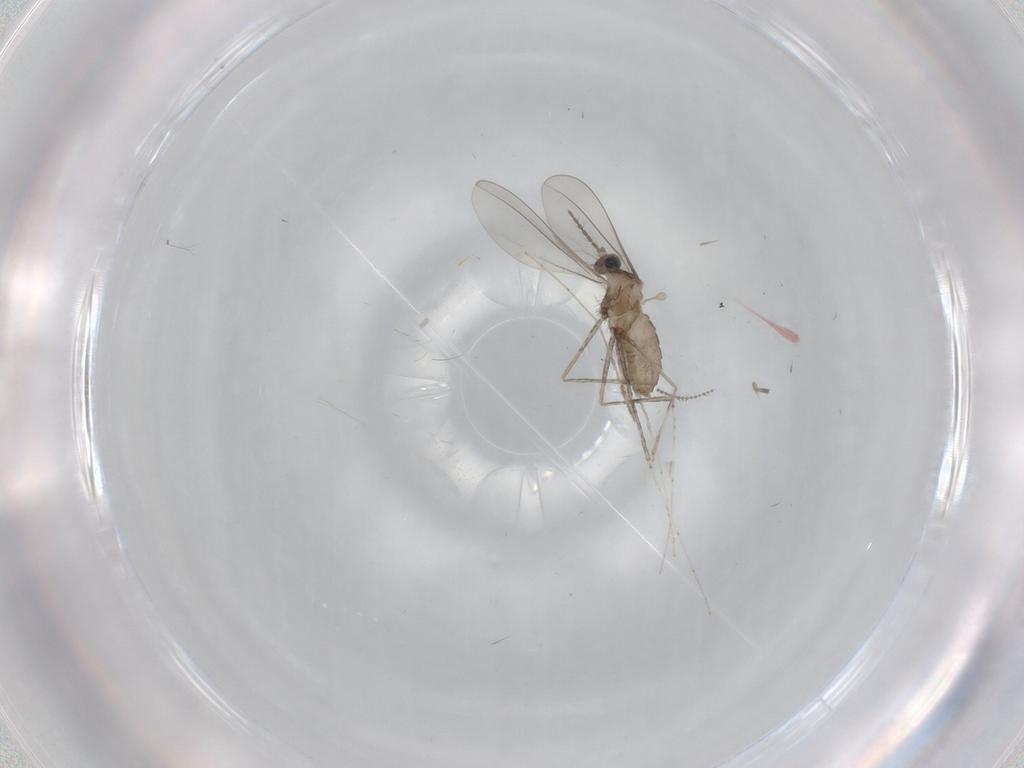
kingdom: Animalia
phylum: Arthropoda
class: Insecta
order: Diptera
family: Cecidomyiidae
